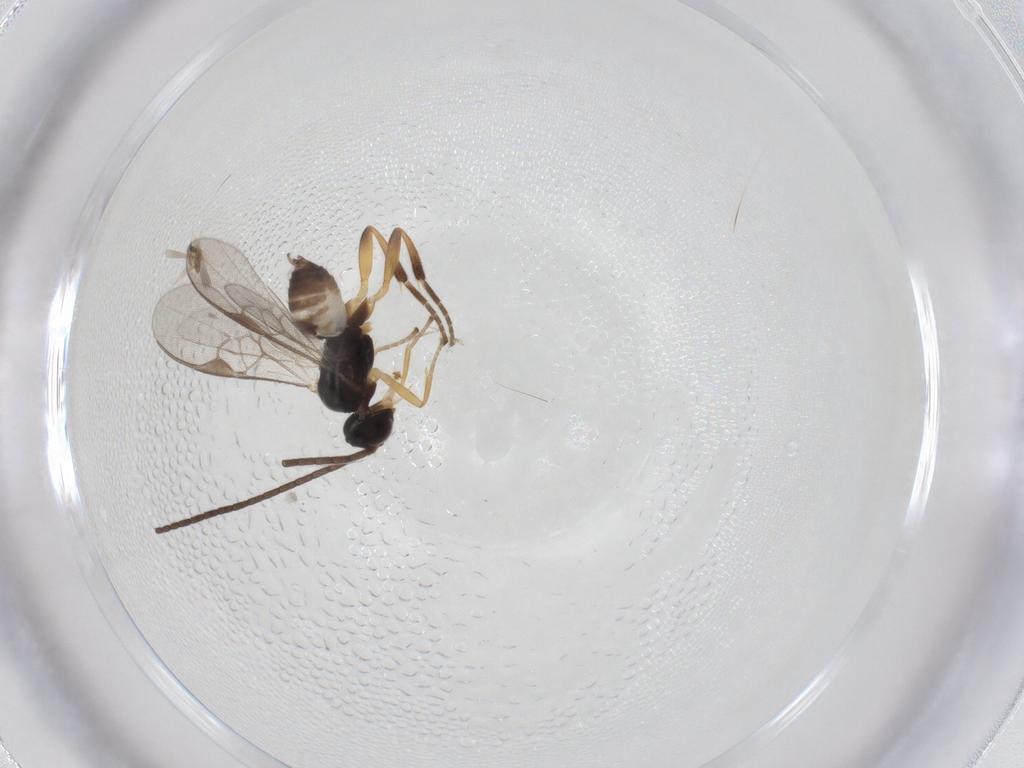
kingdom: Animalia
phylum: Arthropoda
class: Insecta
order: Hymenoptera
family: Braconidae
